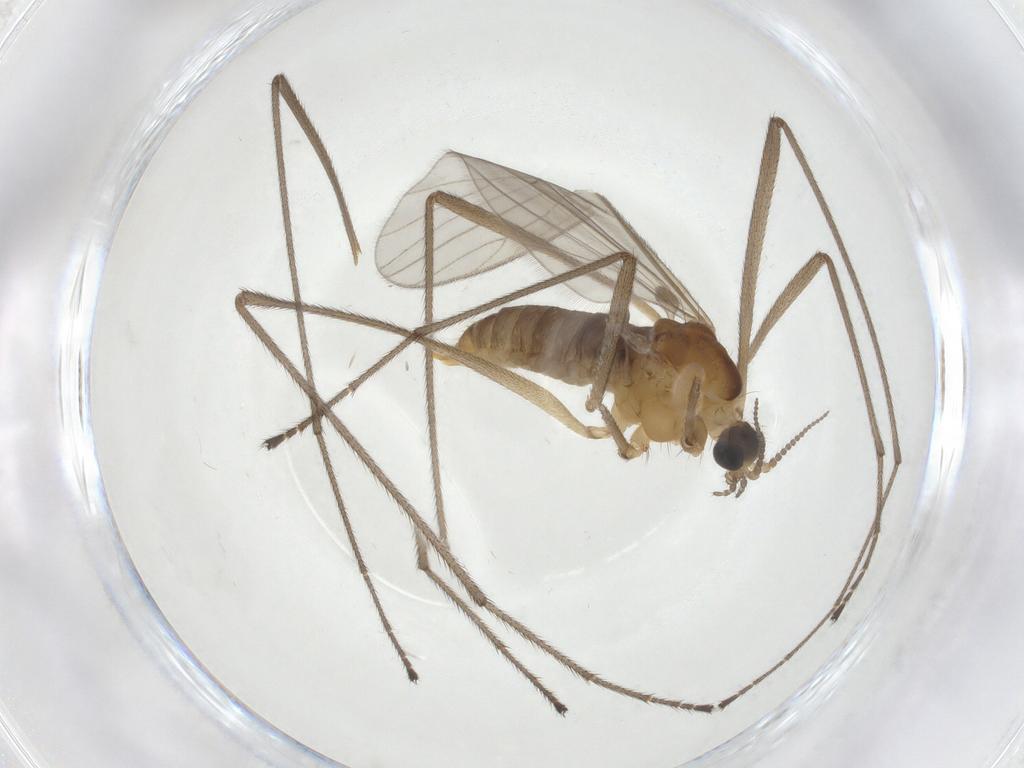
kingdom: Animalia
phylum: Arthropoda
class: Insecta
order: Diptera
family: Limoniidae
